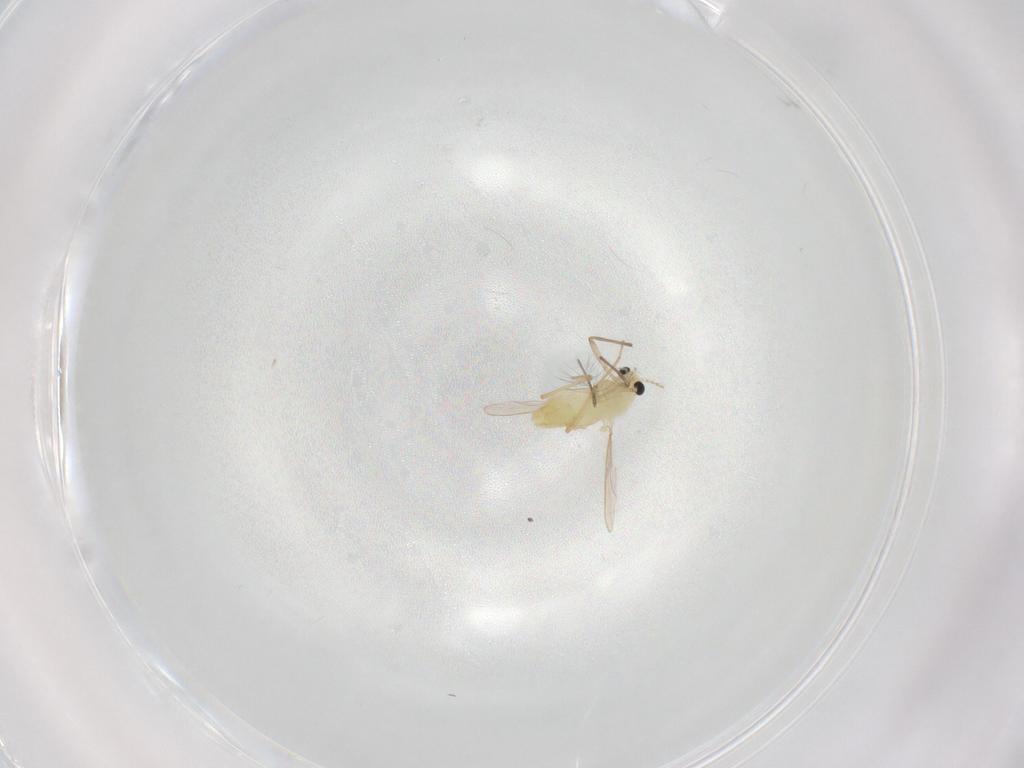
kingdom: Animalia
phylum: Arthropoda
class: Insecta
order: Diptera
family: Chironomidae
